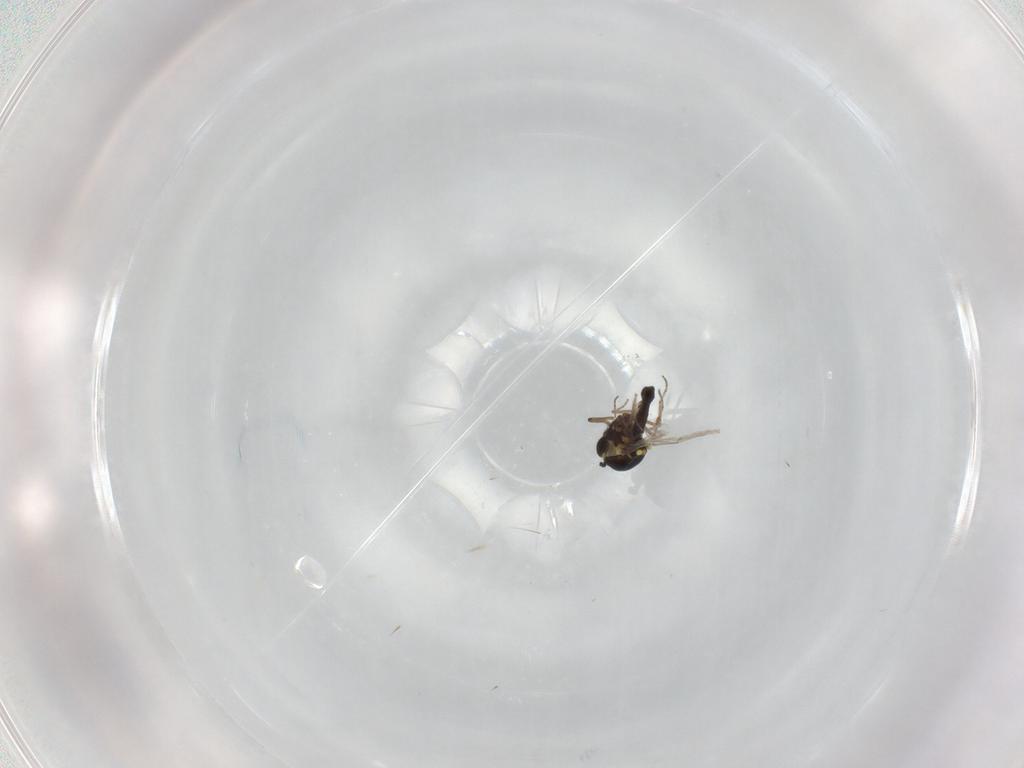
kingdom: Animalia
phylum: Arthropoda
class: Insecta
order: Diptera
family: Ceratopogonidae
